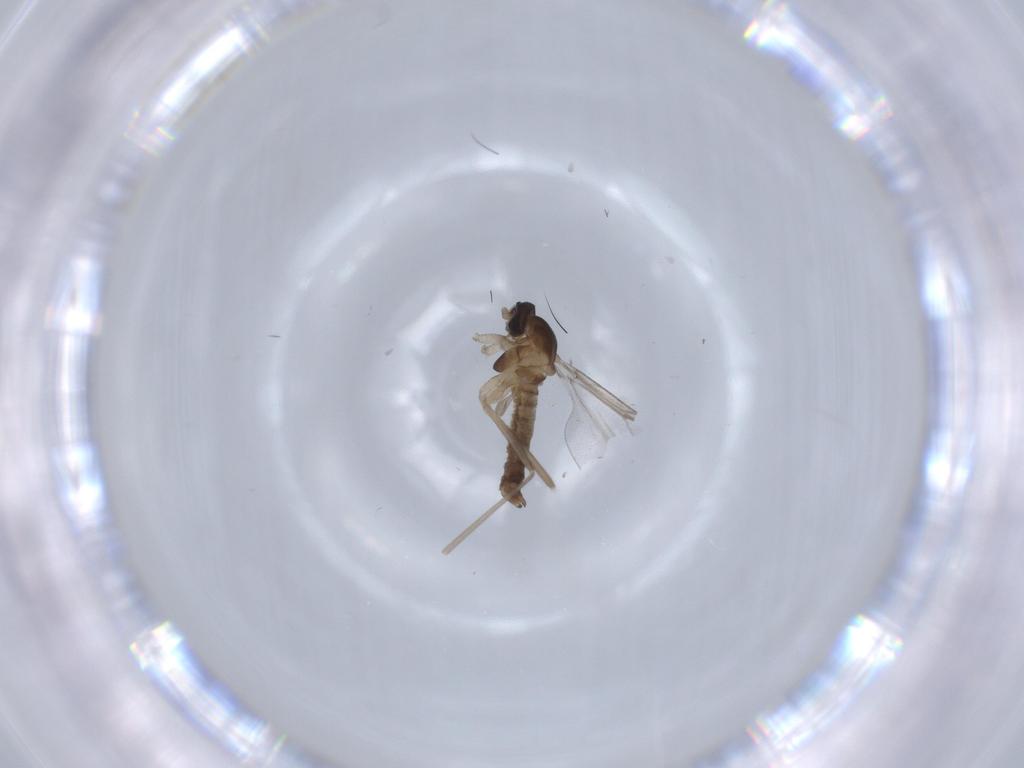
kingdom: Animalia
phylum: Arthropoda
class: Insecta
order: Diptera
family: Cecidomyiidae
